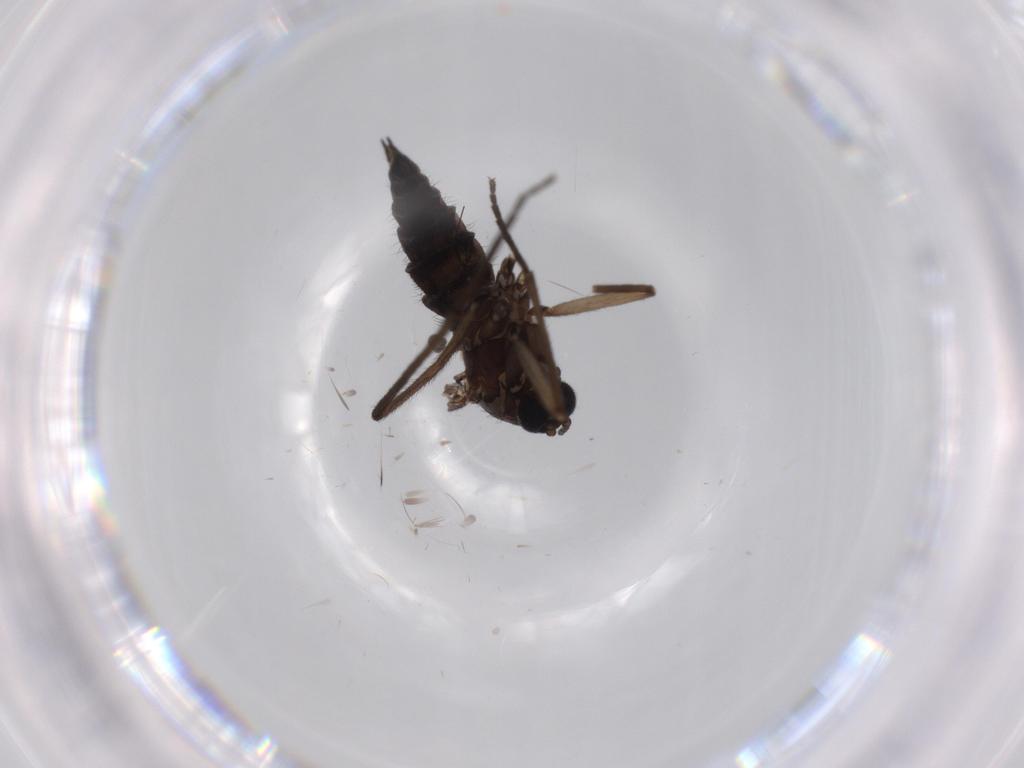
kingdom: Animalia
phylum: Arthropoda
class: Insecta
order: Diptera
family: Sciaridae
